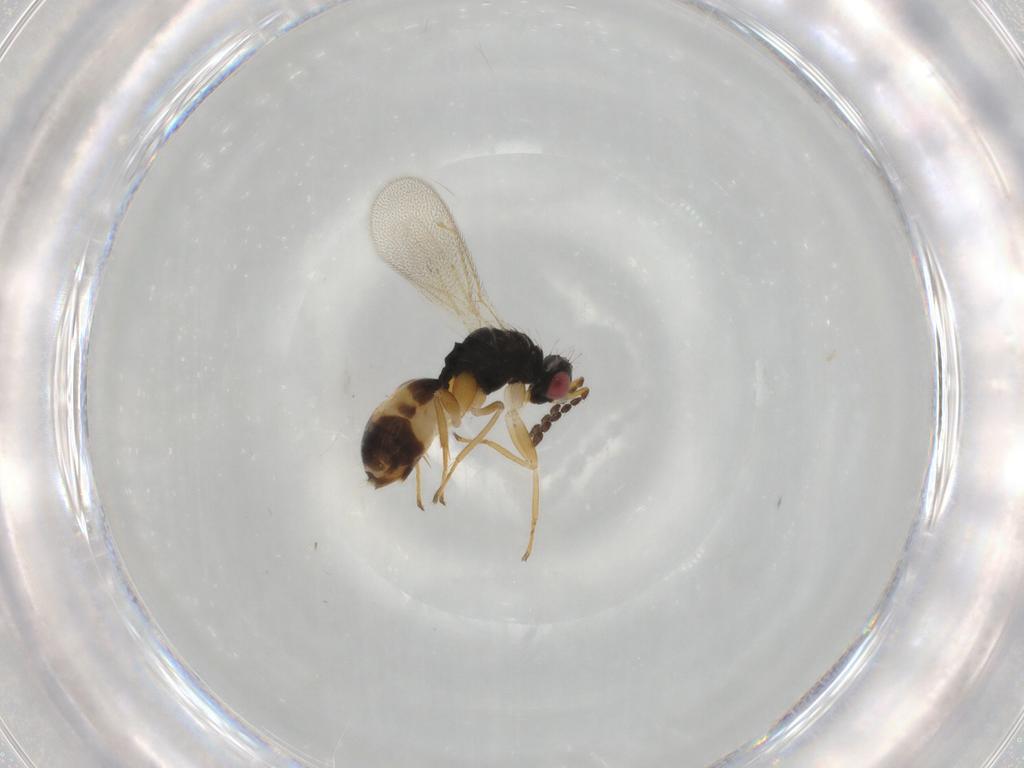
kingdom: Animalia
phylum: Arthropoda
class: Insecta
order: Hymenoptera
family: Eulophidae
